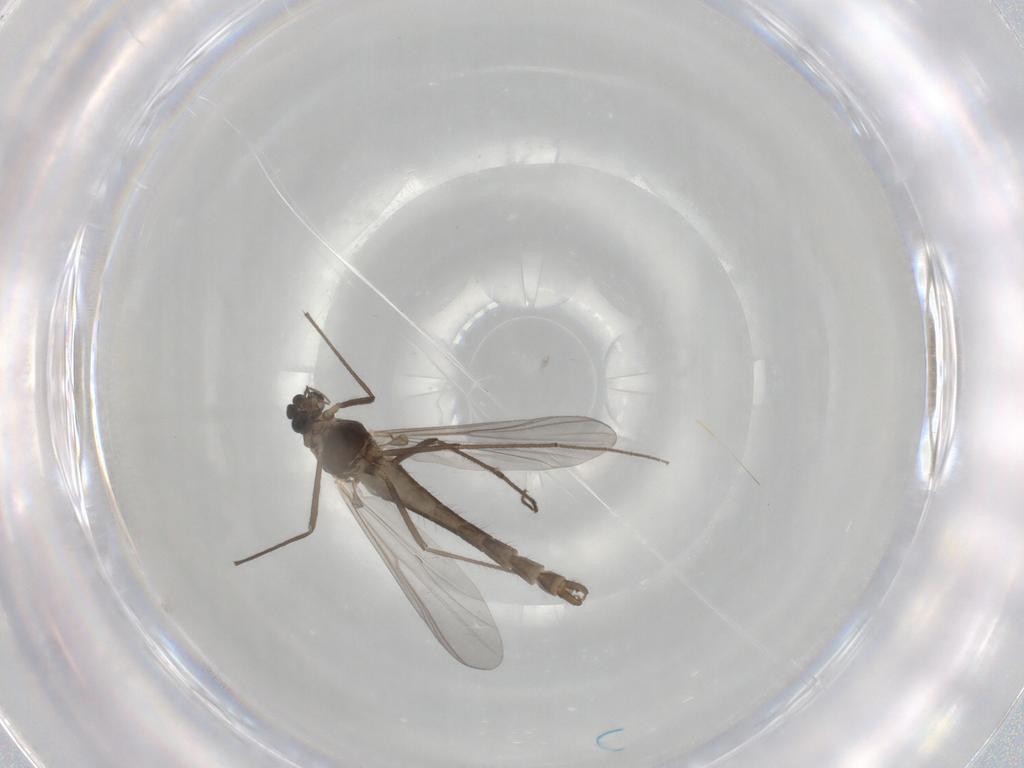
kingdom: Animalia
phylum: Arthropoda
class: Insecta
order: Diptera
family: Chironomidae
